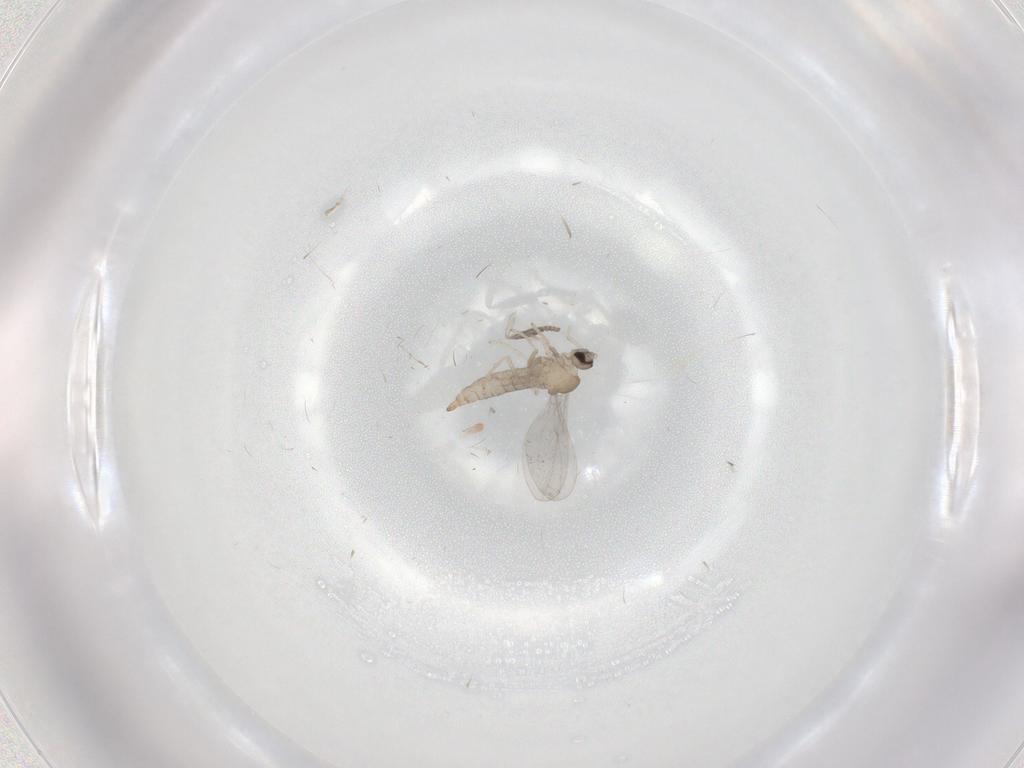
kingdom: Animalia
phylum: Arthropoda
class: Insecta
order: Diptera
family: Cecidomyiidae
